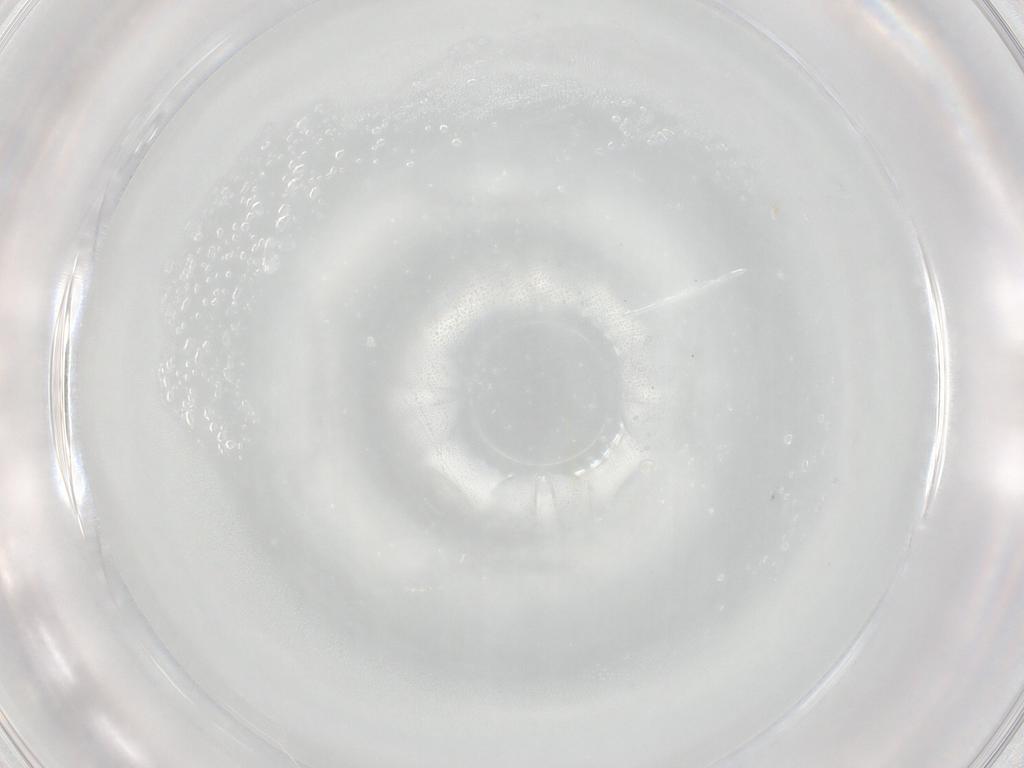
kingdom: Animalia
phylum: Arthropoda
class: Insecta
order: Diptera
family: Cecidomyiidae
